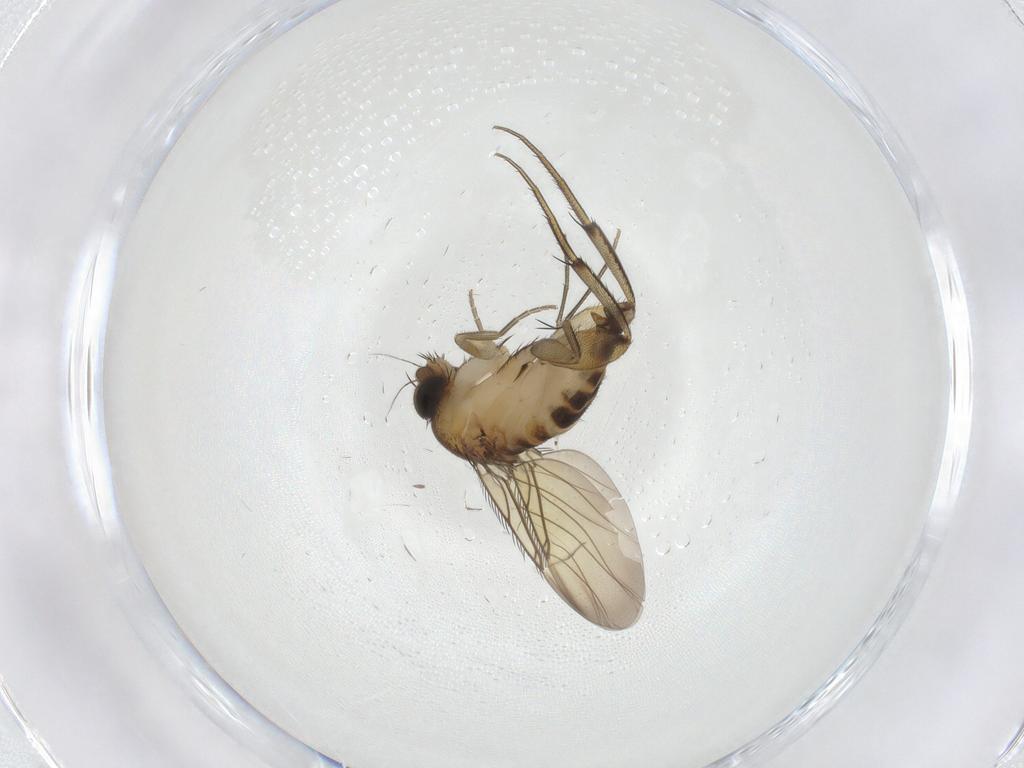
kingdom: Animalia
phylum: Arthropoda
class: Insecta
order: Diptera
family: Phoridae
